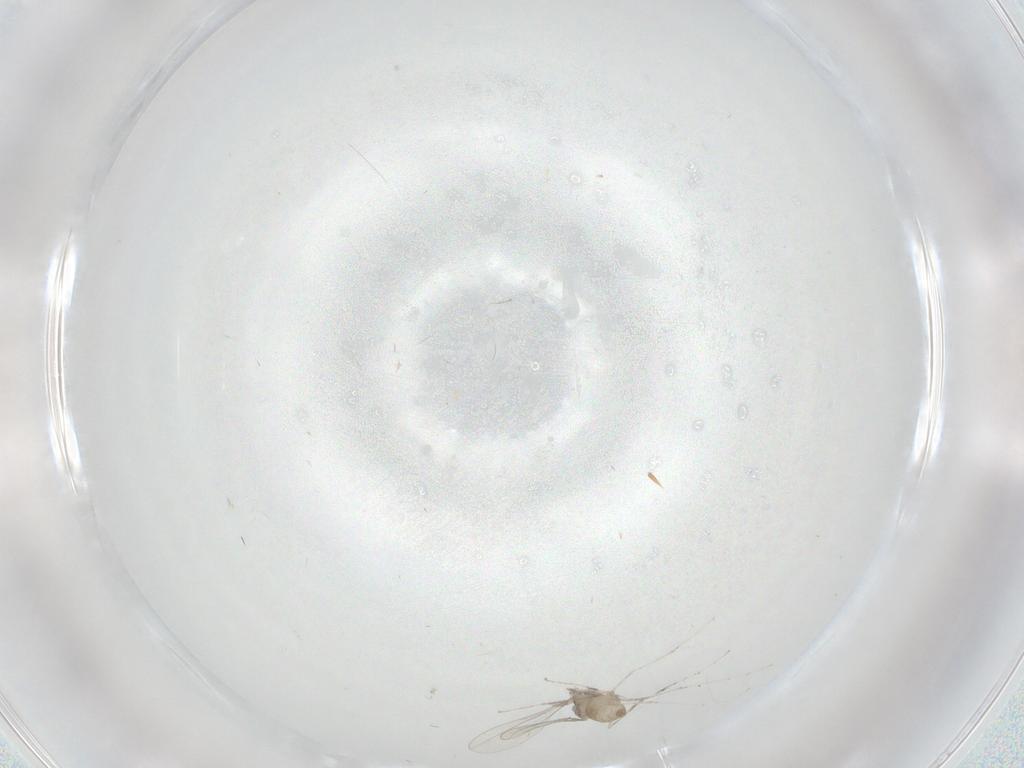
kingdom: Animalia
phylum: Arthropoda
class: Insecta
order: Diptera
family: Cecidomyiidae
